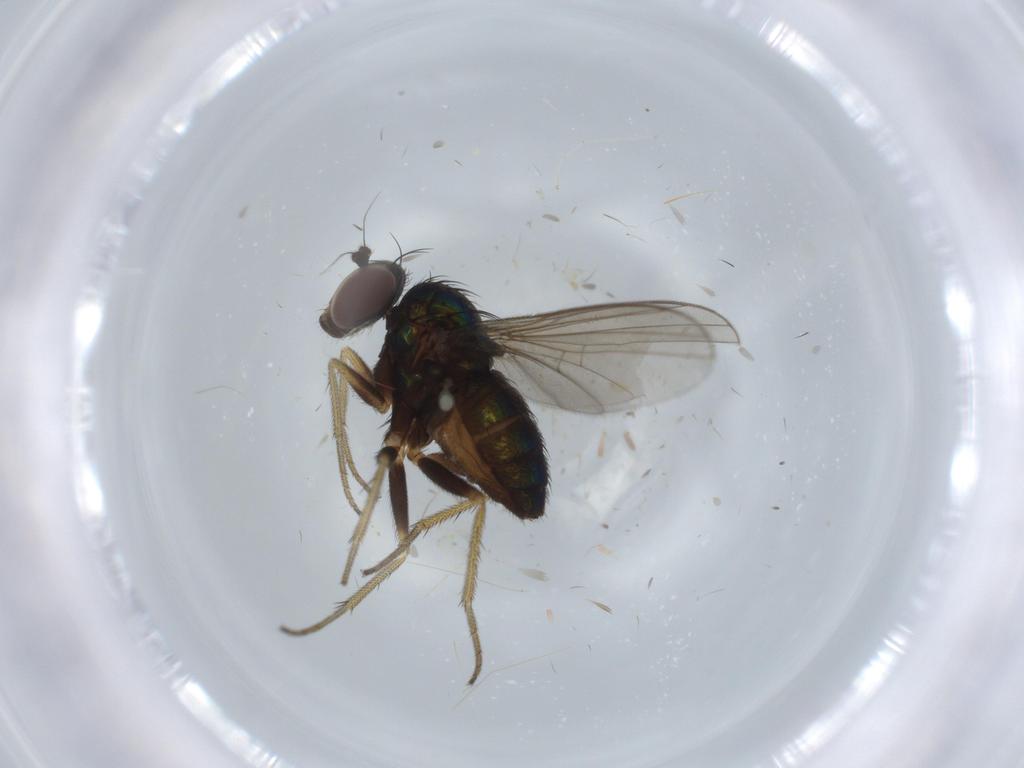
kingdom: Animalia
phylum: Arthropoda
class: Insecta
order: Diptera
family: Dolichopodidae
